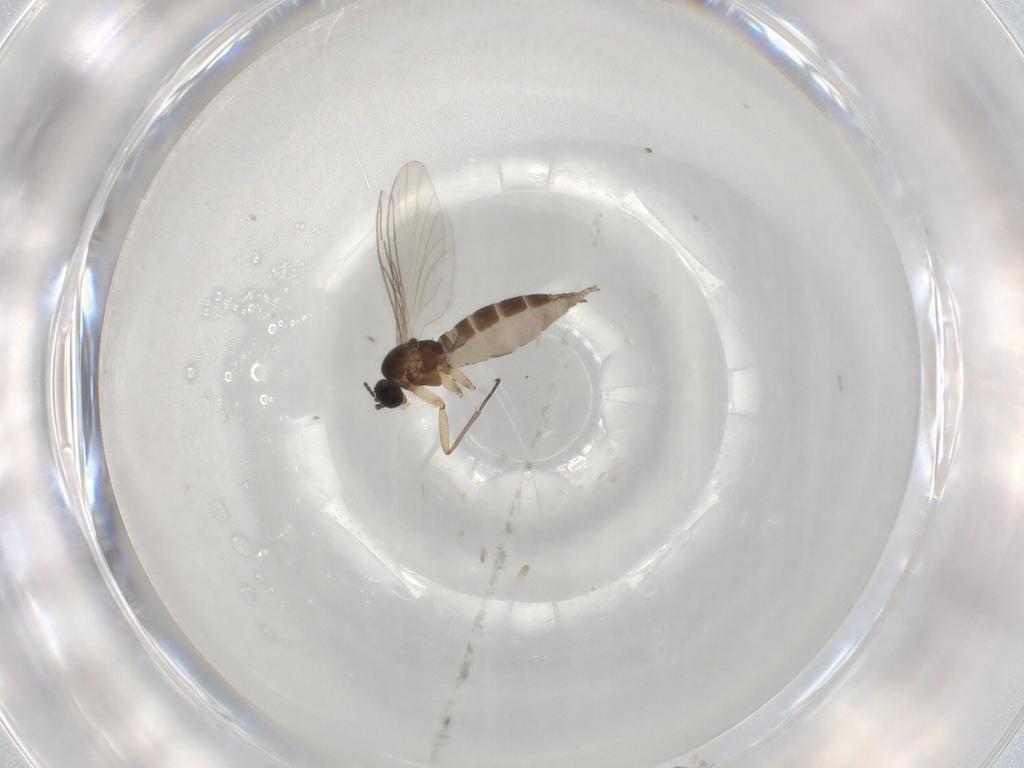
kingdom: Animalia
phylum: Arthropoda
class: Insecta
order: Diptera
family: Sciaridae
